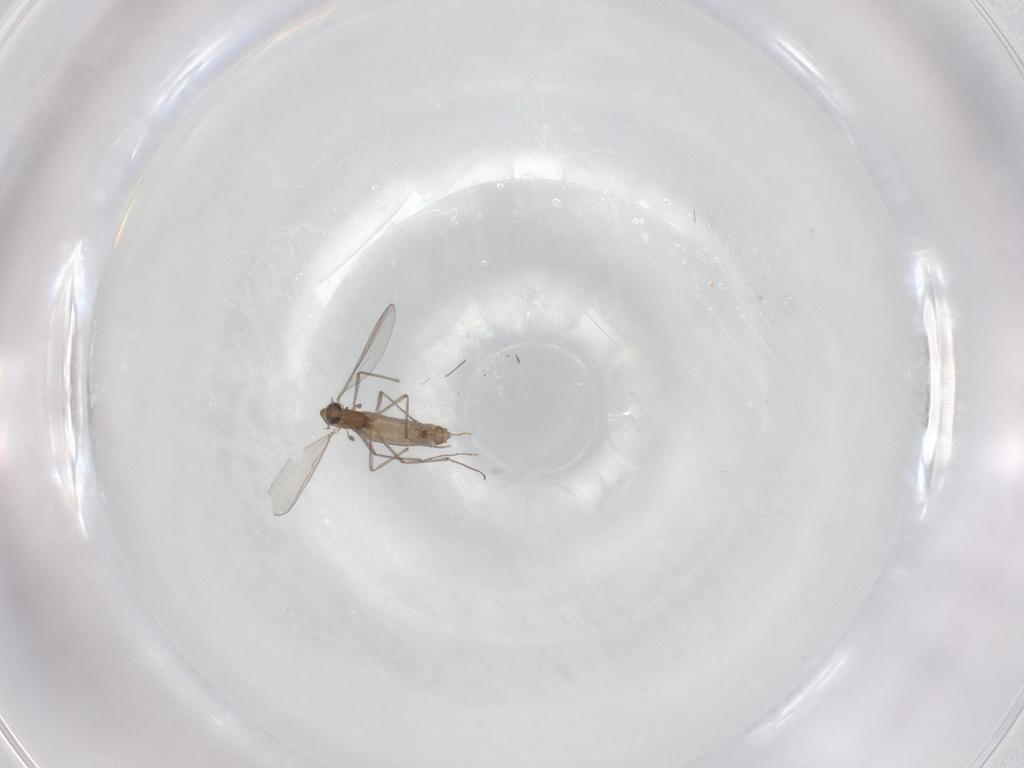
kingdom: Animalia
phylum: Arthropoda
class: Insecta
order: Diptera
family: Chironomidae
